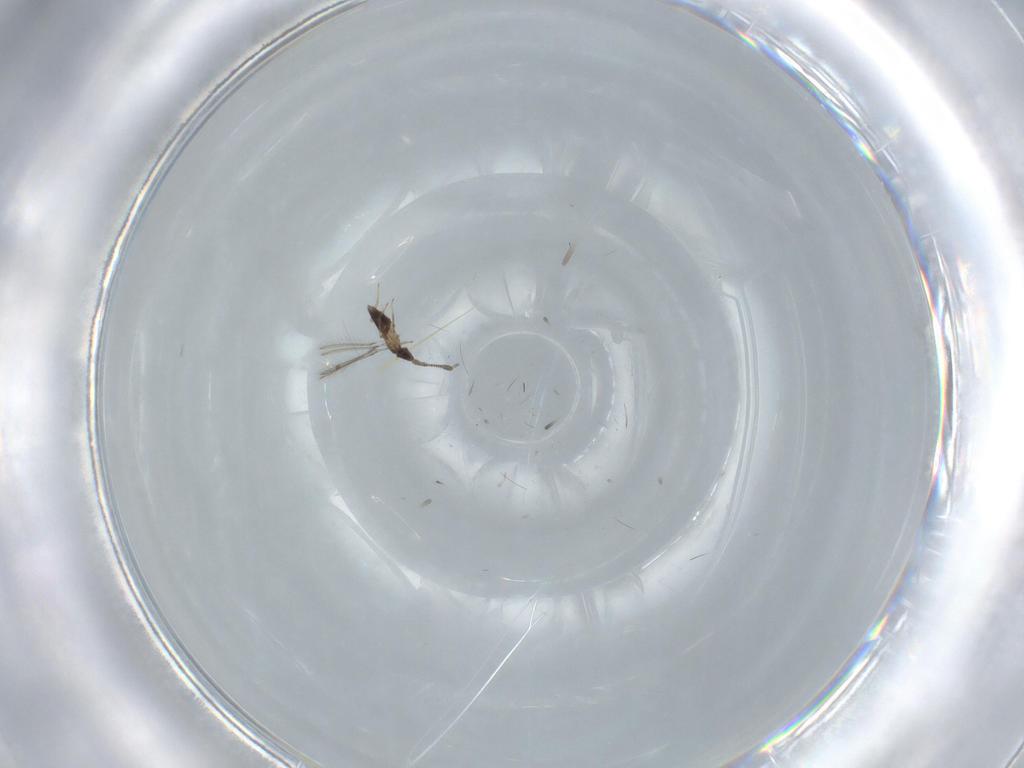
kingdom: Animalia
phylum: Arthropoda
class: Insecta
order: Hymenoptera
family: Mymaridae
